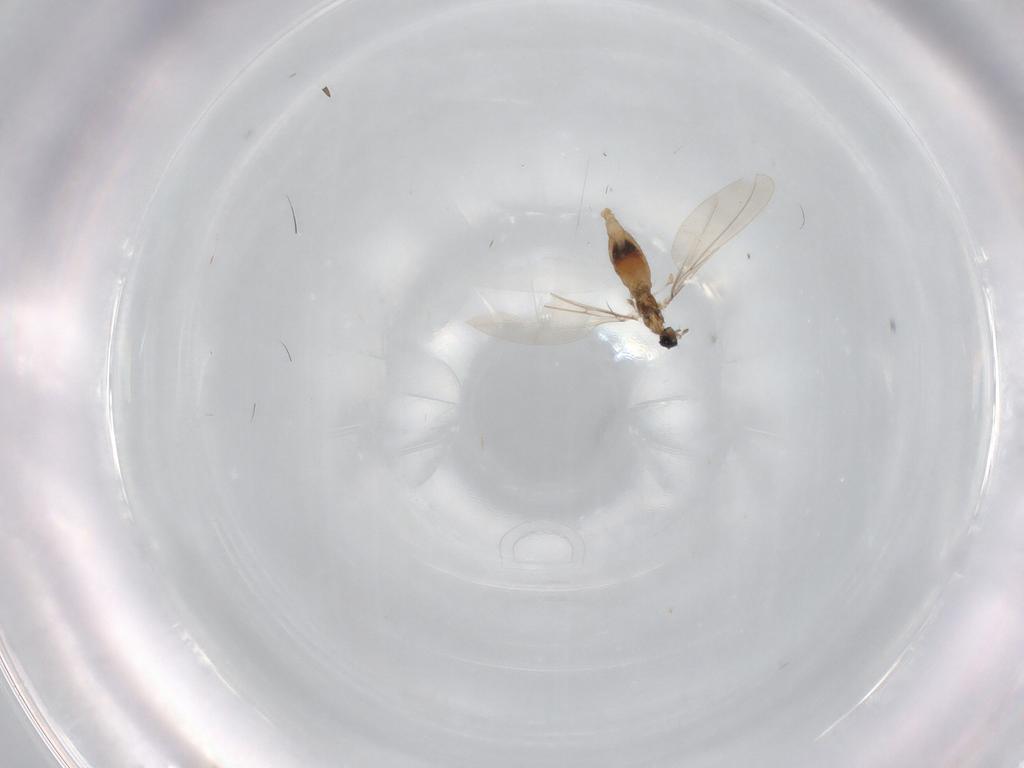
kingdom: Animalia
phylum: Arthropoda
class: Insecta
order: Diptera
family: Cecidomyiidae
